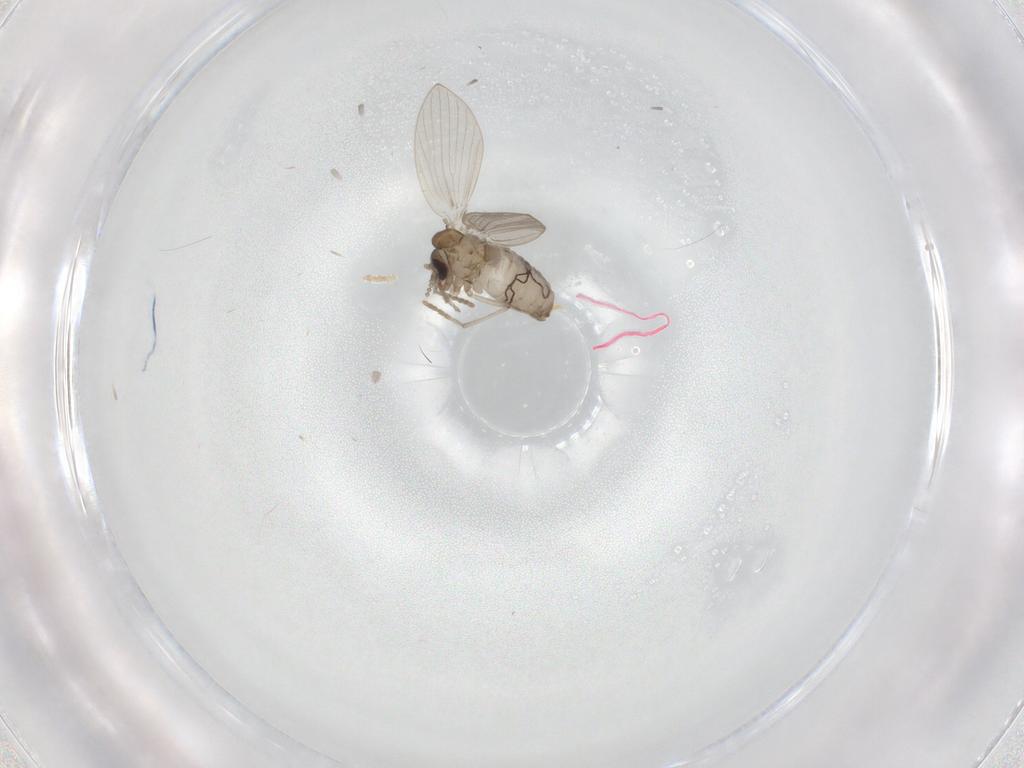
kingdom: Animalia
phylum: Arthropoda
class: Insecta
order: Diptera
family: Psychodidae
